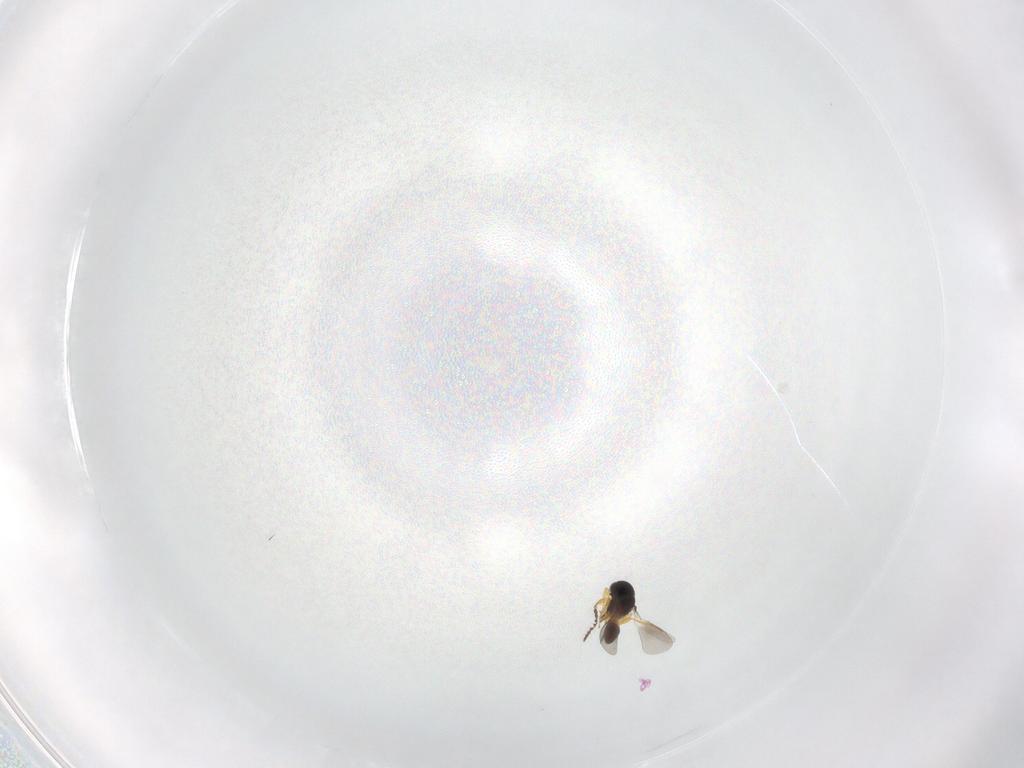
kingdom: Animalia
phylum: Arthropoda
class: Insecta
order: Hymenoptera
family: Platygastridae
